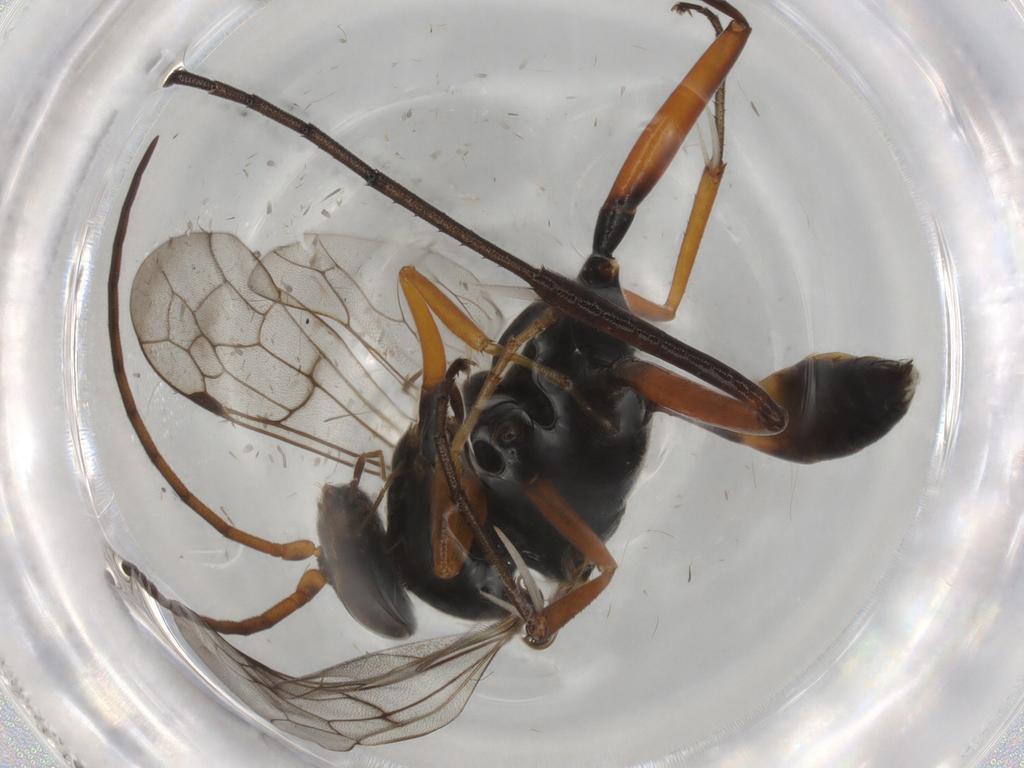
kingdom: Animalia
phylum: Arthropoda
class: Insecta
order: Hymenoptera
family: Pompilidae
